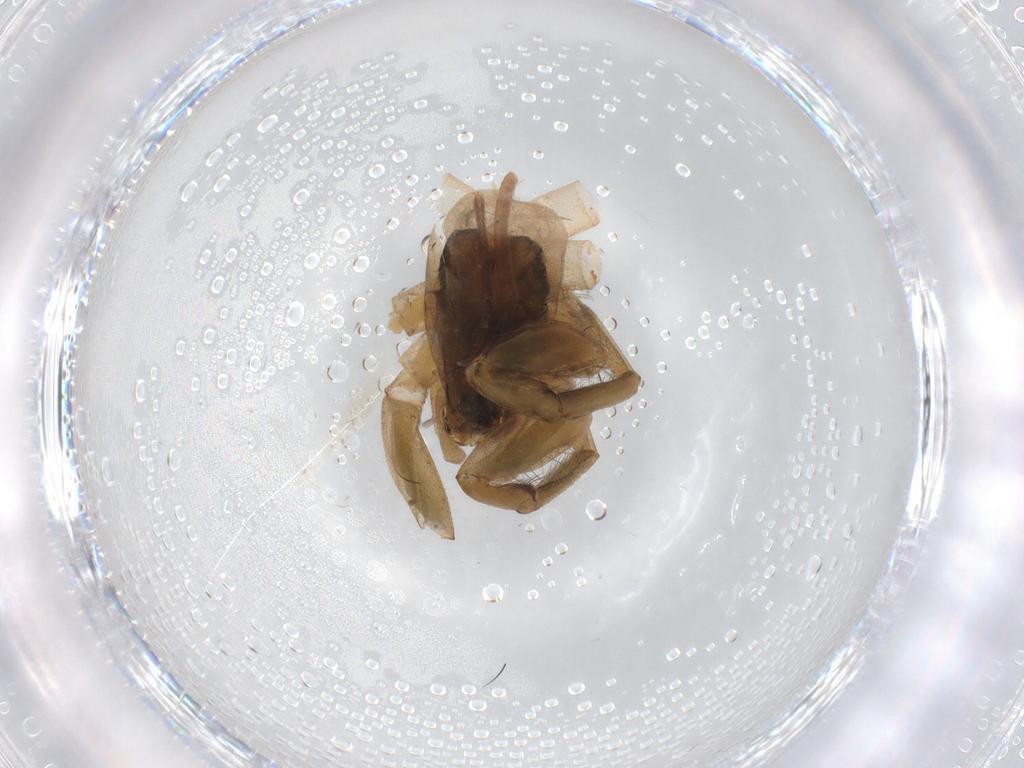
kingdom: Animalia
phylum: Arthropoda
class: Arachnida
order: Araneae
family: Gnaphosidae
